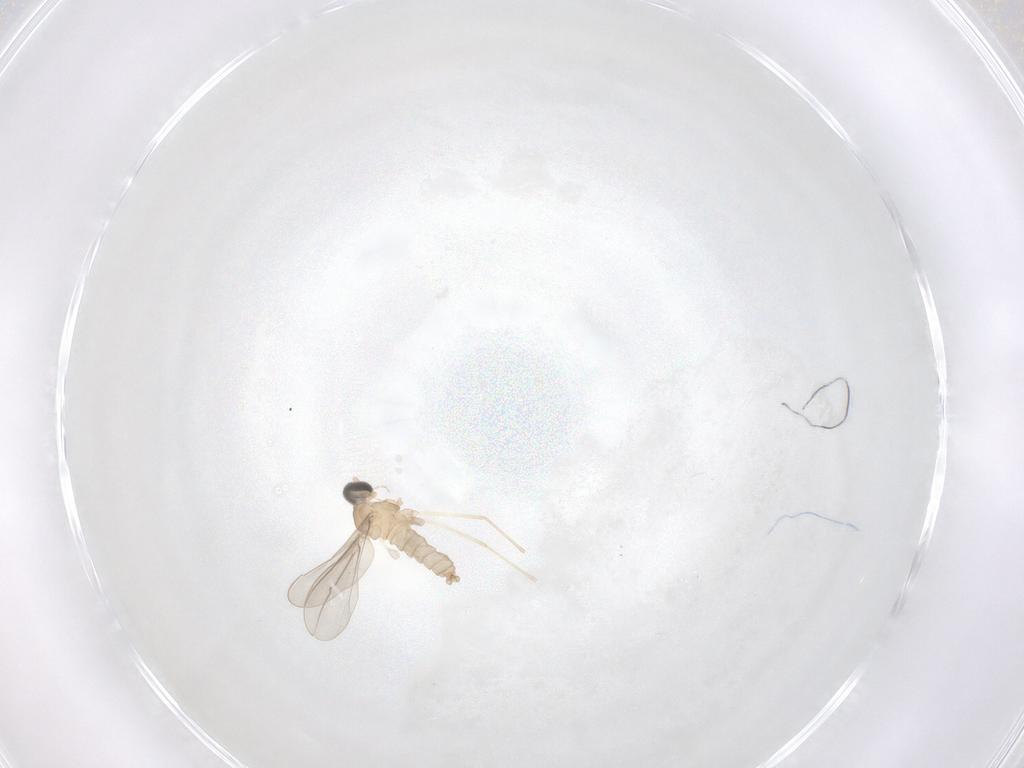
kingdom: Animalia
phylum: Arthropoda
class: Insecta
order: Diptera
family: Cecidomyiidae
